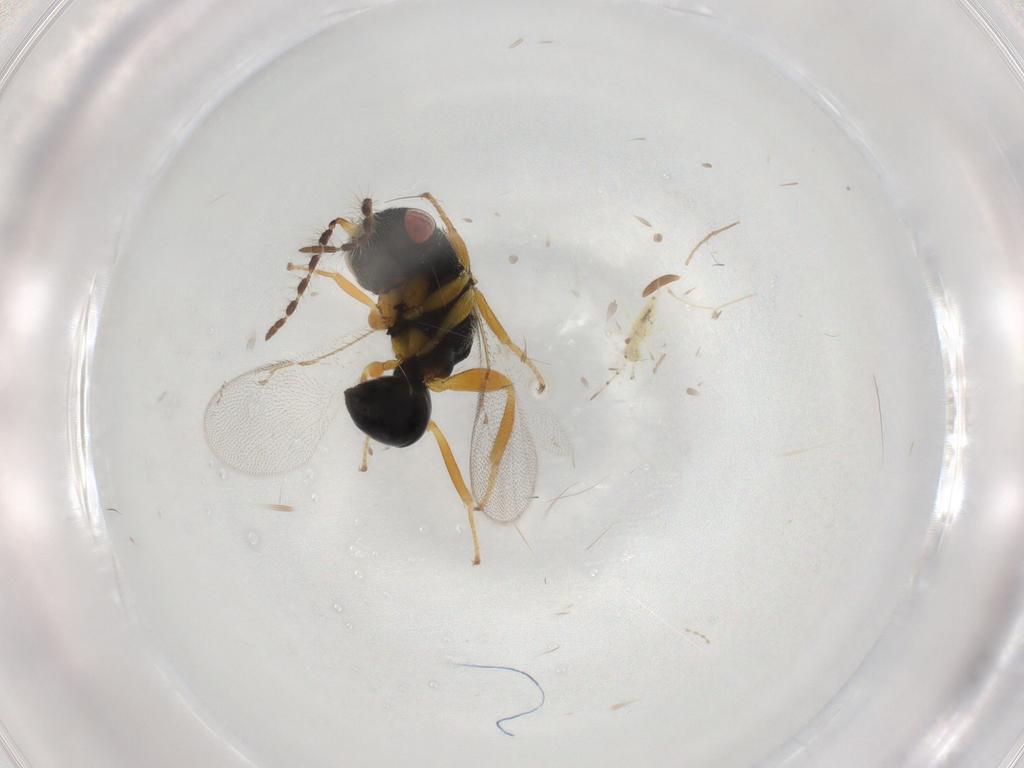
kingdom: Animalia
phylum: Arthropoda
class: Insecta
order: Hymenoptera
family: Eurytomidae
